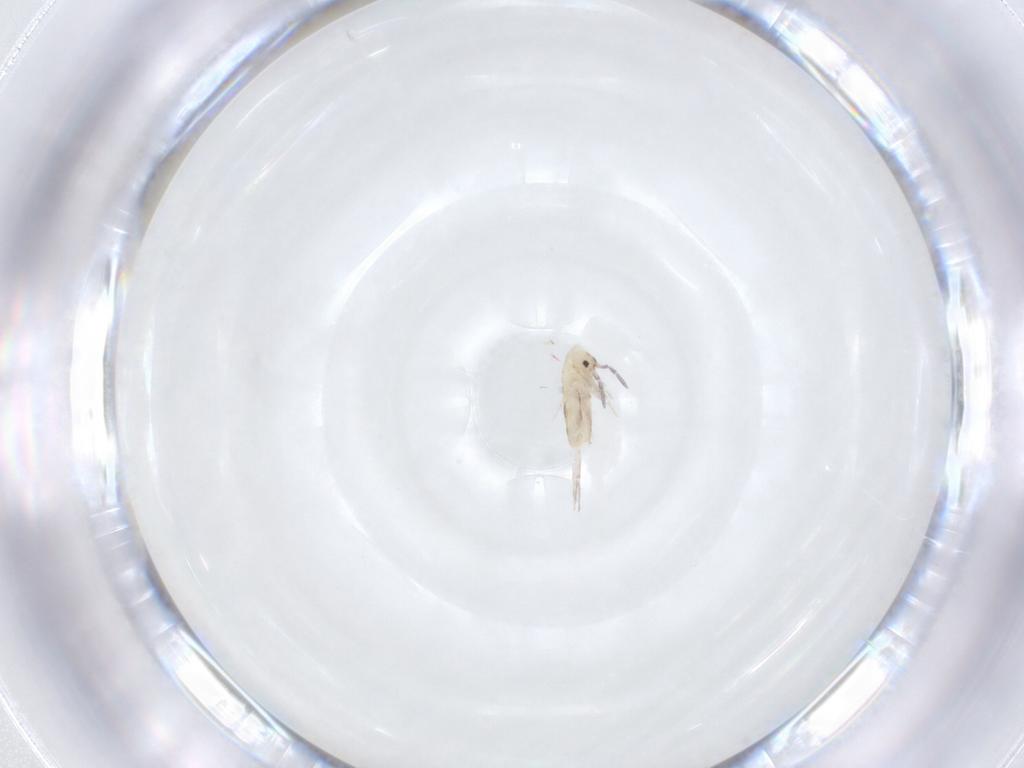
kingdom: Animalia
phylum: Arthropoda
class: Collembola
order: Entomobryomorpha
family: Entomobryidae
